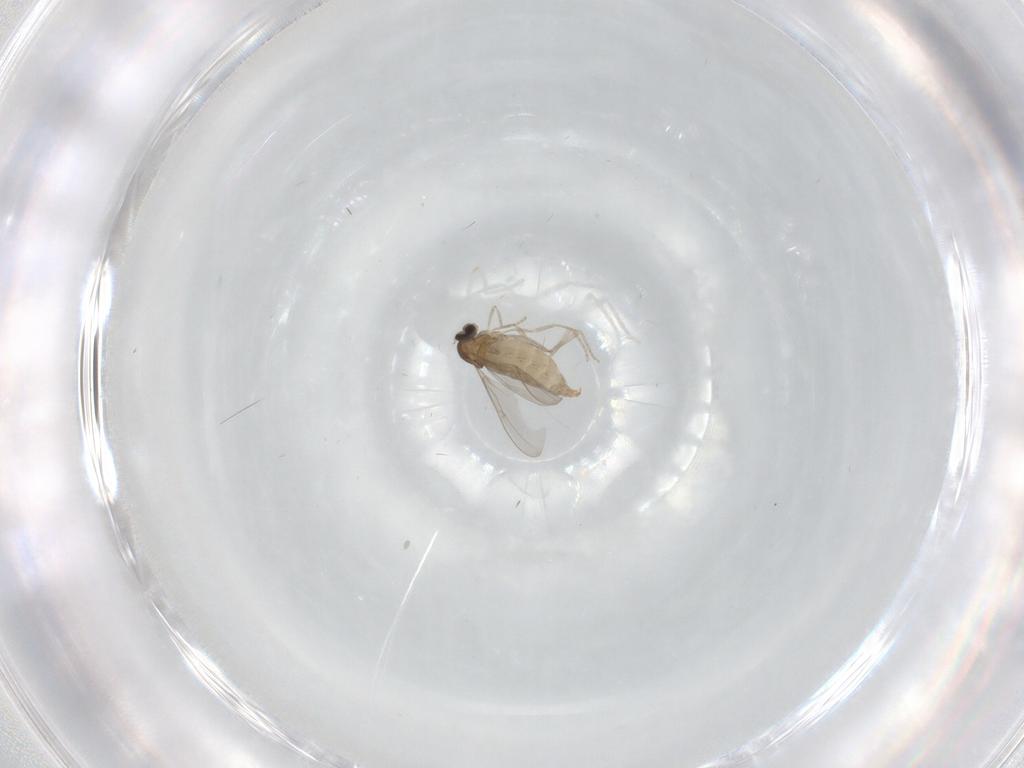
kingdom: Animalia
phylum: Arthropoda
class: Insecta
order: Diptera
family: Cecidomyiidae
